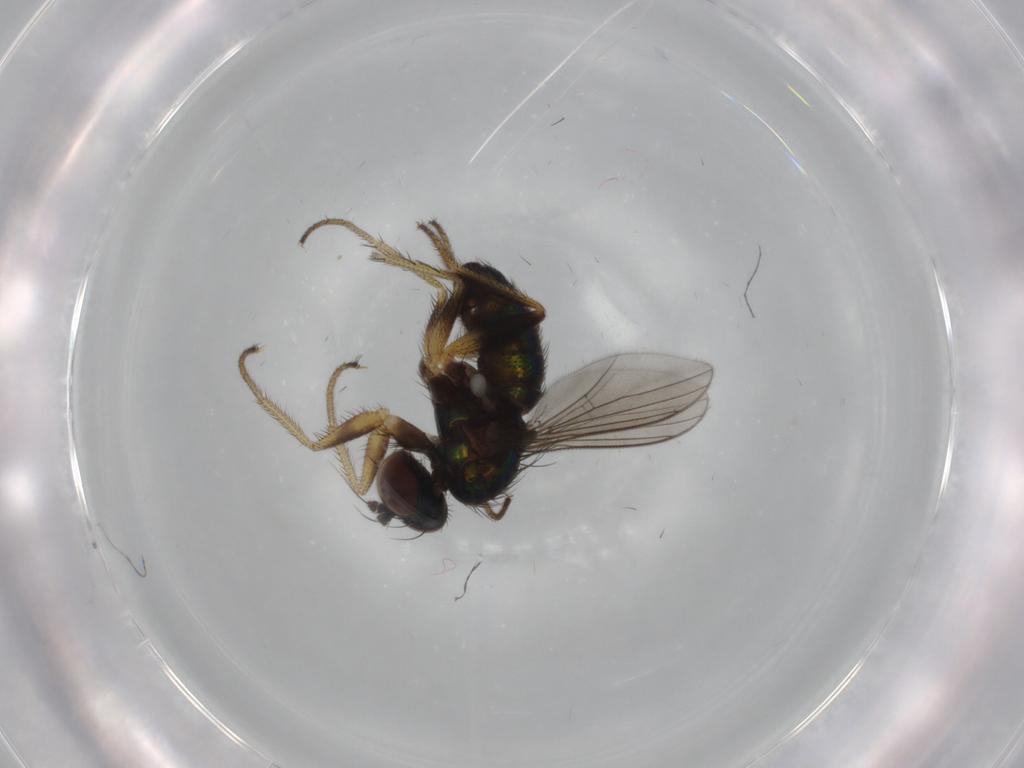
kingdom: Animalia
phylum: Arthropoda
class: Insecta
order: Diptera
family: Dolichopodidae
